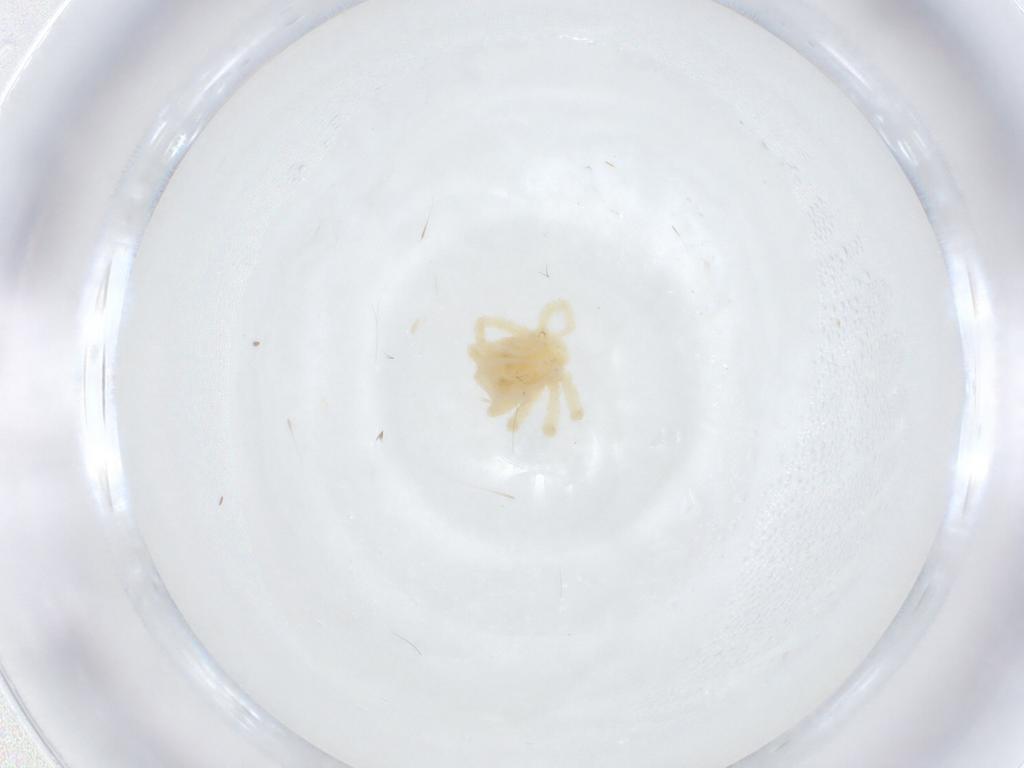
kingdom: Animalia
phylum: Arthropoda
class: Arachnida
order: Trombidiformes
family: Anystidae
